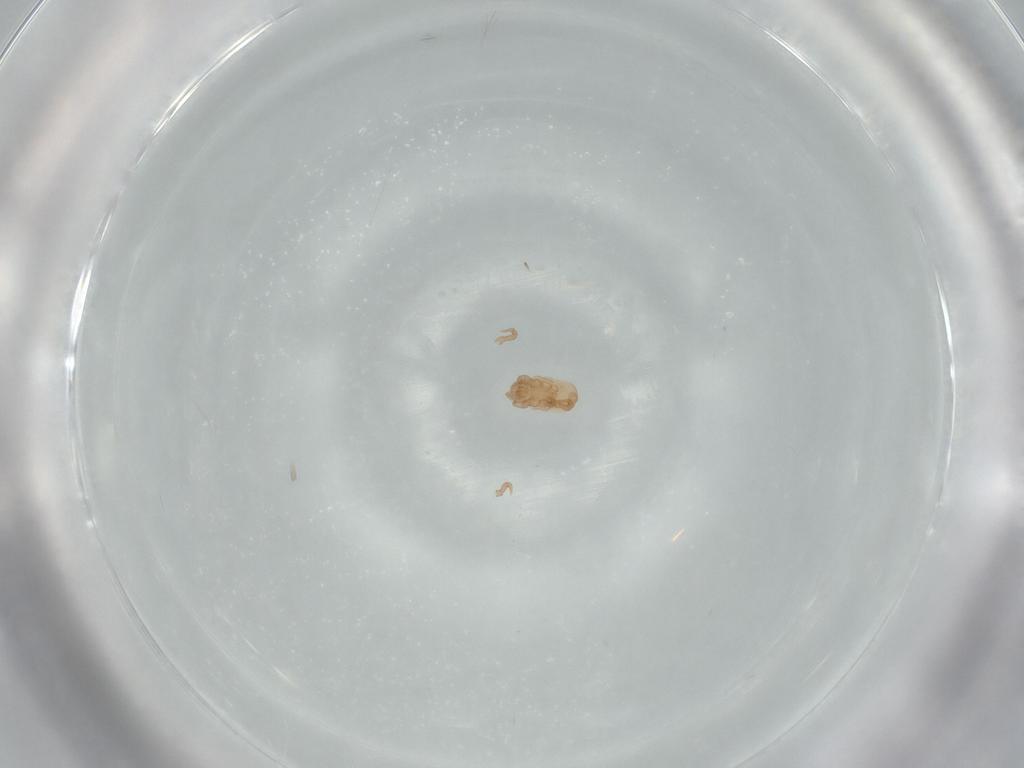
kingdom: Animalia
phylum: Arthropoda
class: Arachnida
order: Mesostigmata
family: Halolaelapidae
